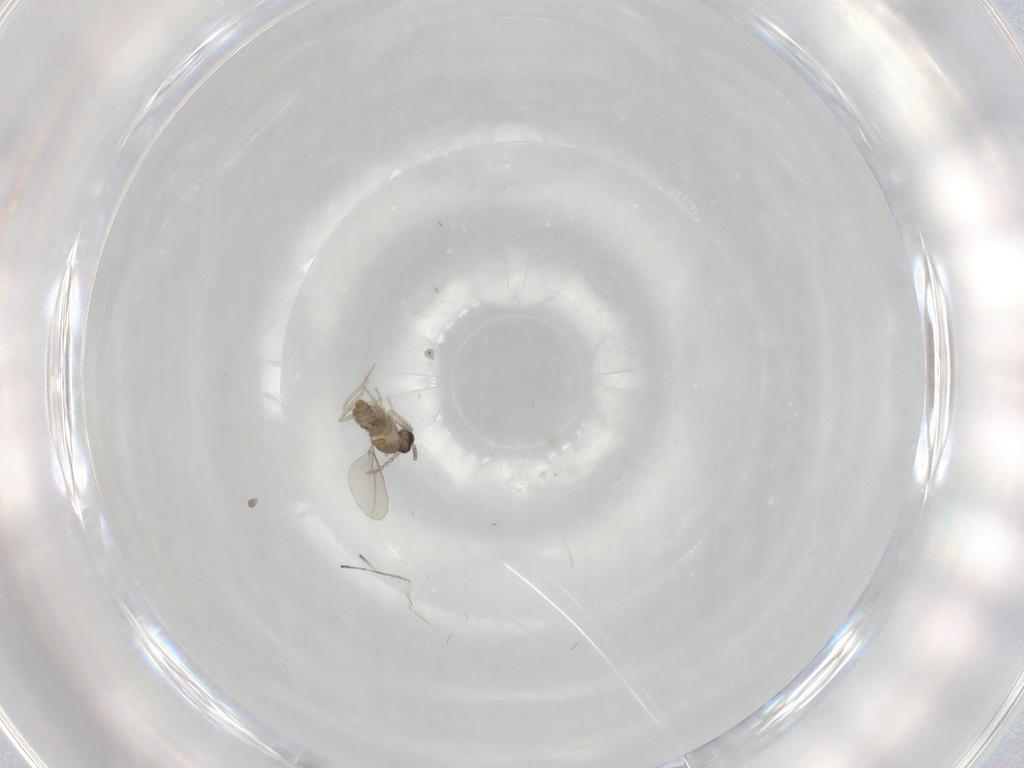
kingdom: Animalia
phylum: Arthropoda
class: Insecta
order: Diptera
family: Cecidomyiidae
